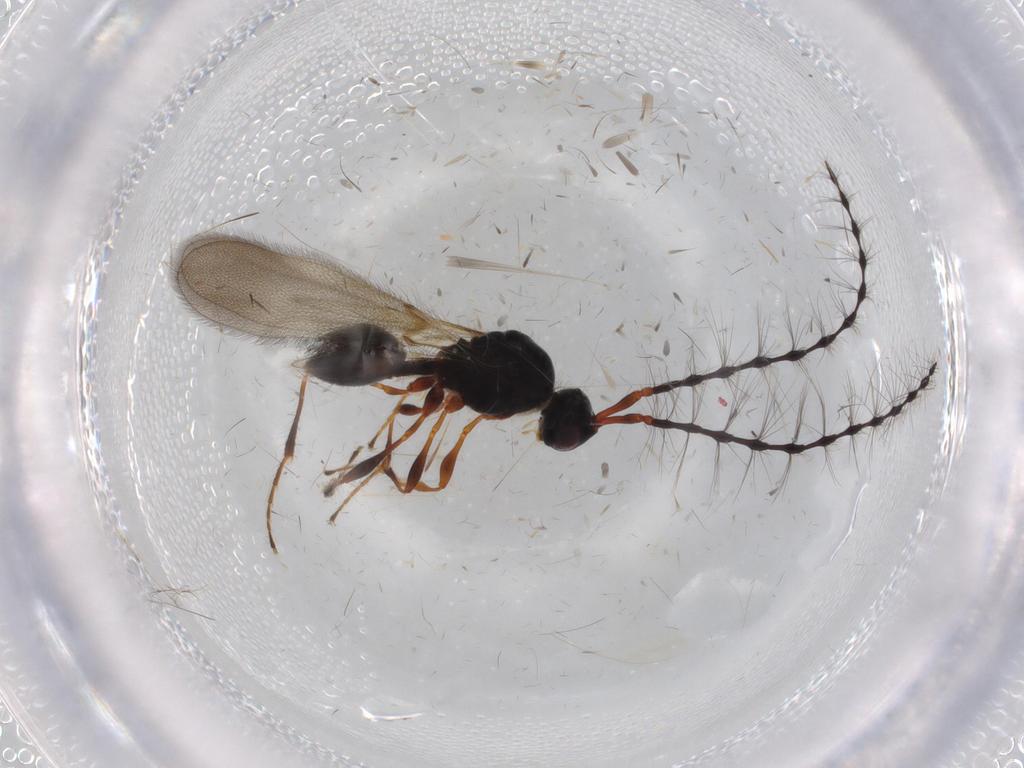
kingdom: Animalia
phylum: Arthropoda
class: Insecta
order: Hymenoptera
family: Diapriidae
